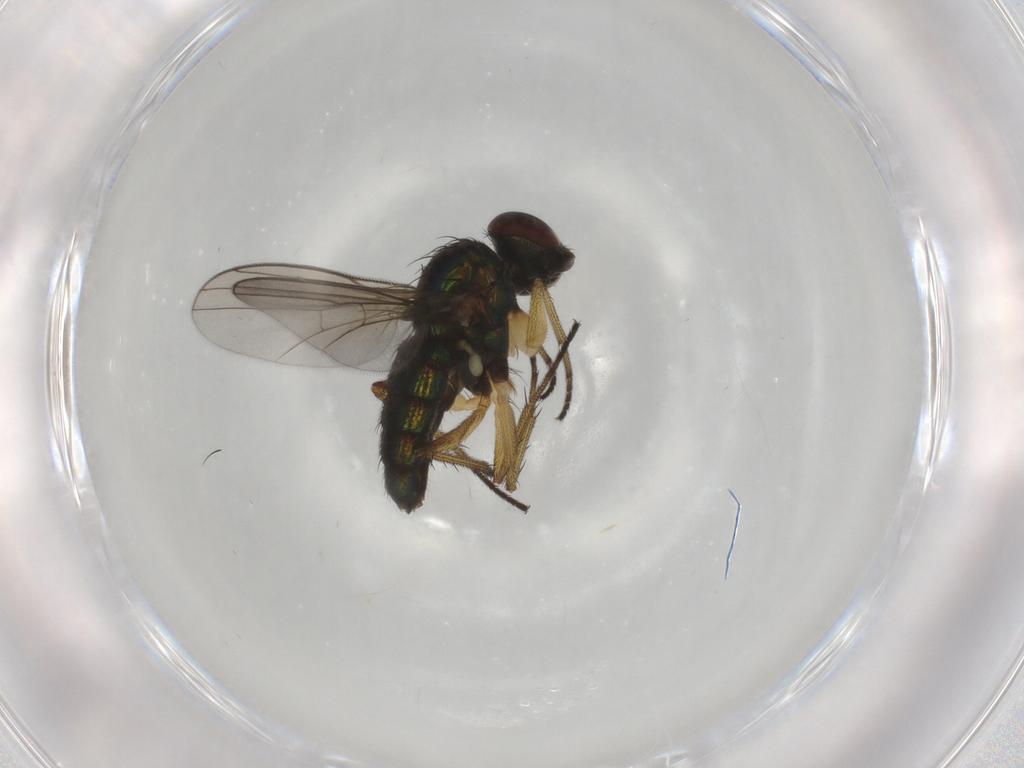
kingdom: Animalia
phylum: Arthropoda
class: Insecta
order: Diptera
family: Dolichopodidae
